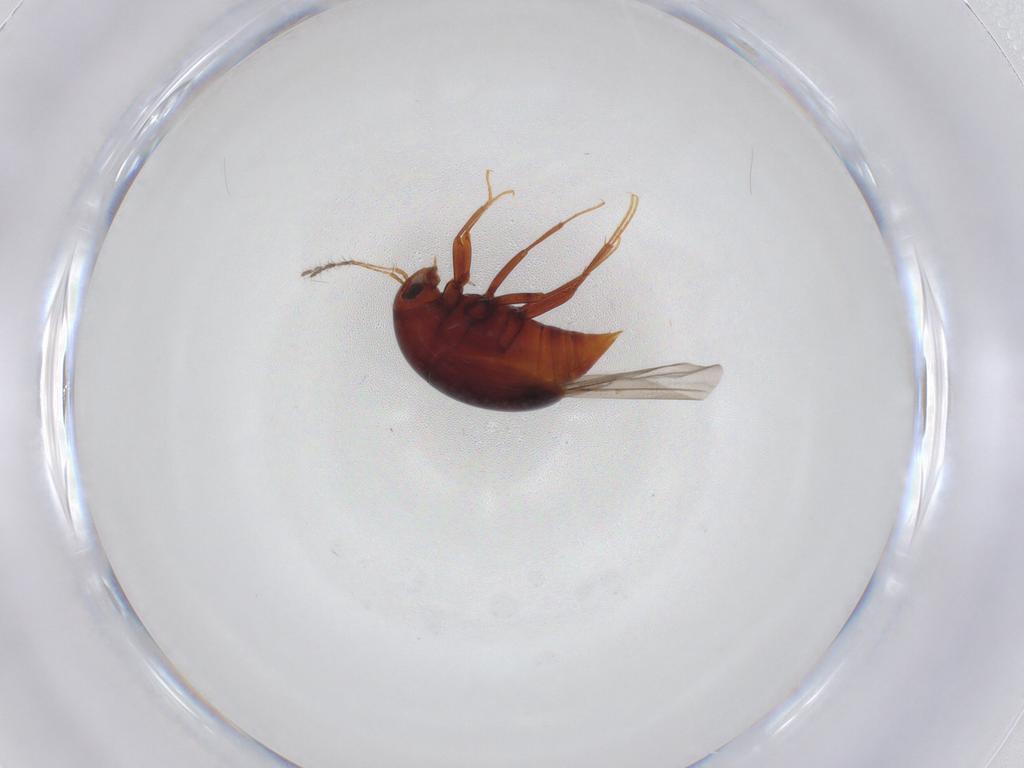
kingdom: Animalia
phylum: Arthropoda
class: Insecta
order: Coleoptera
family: Staphylinidae
